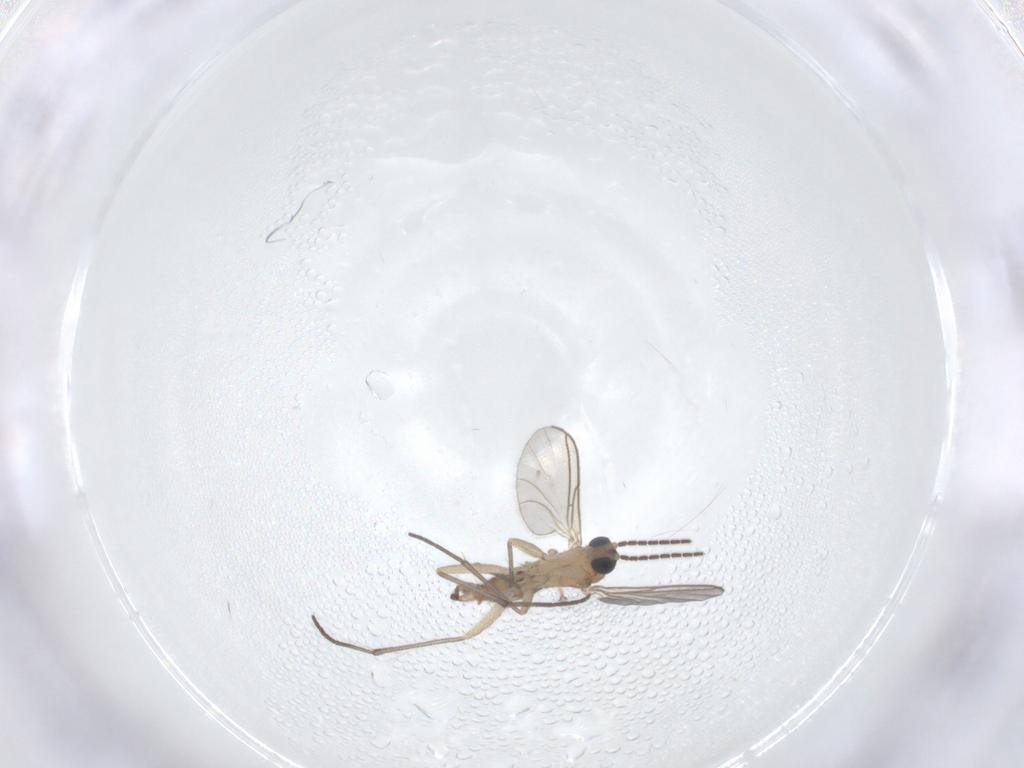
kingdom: Animalia
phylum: Arthropoda
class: Insecta
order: Diptera
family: Sciaridae
